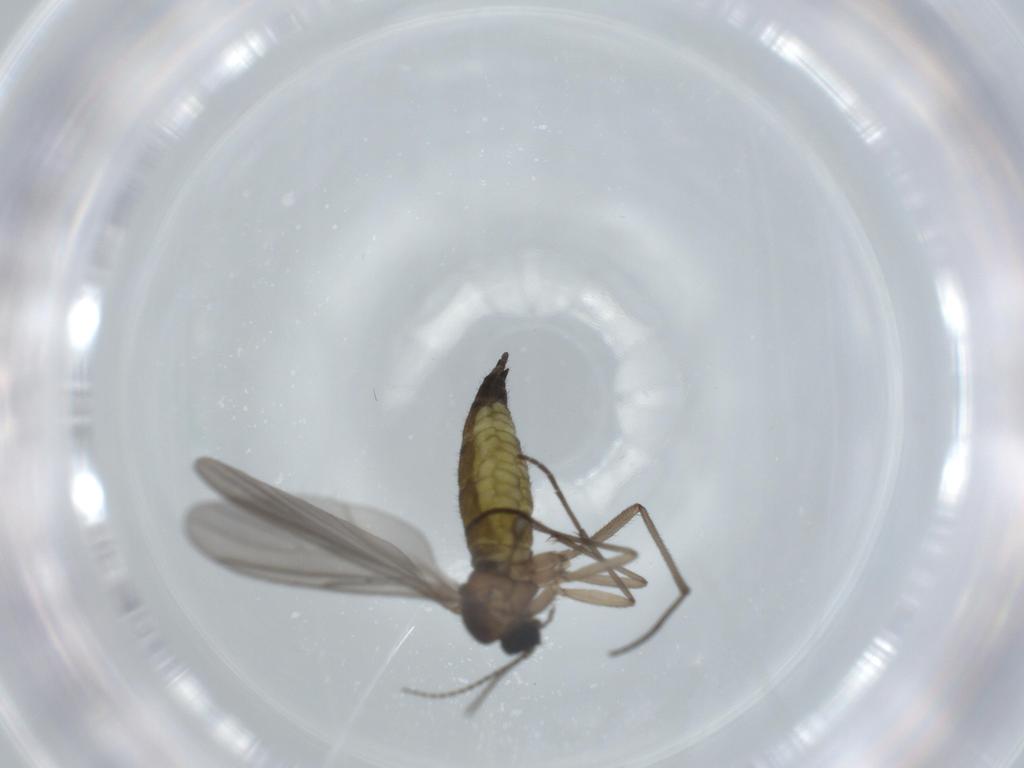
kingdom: Animalia
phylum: Arthropoda
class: Insecta
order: Diptera
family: Sciaridae
